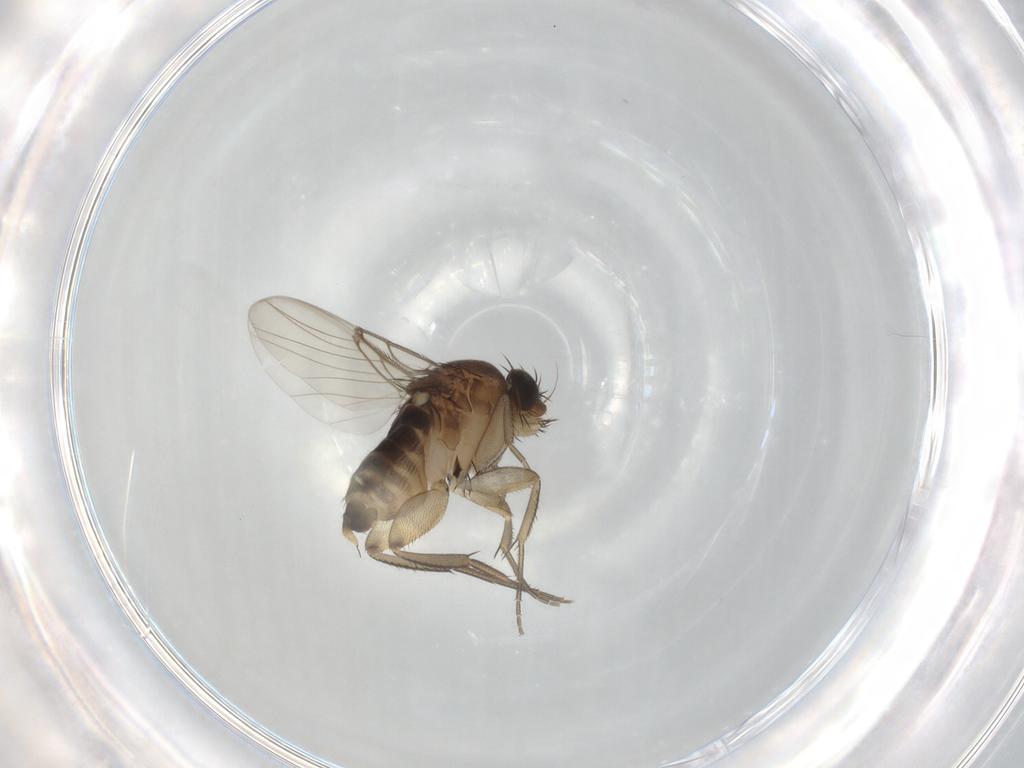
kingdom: Animalia
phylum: Arthropoda
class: Insecta
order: Diptera
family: Phoridae
